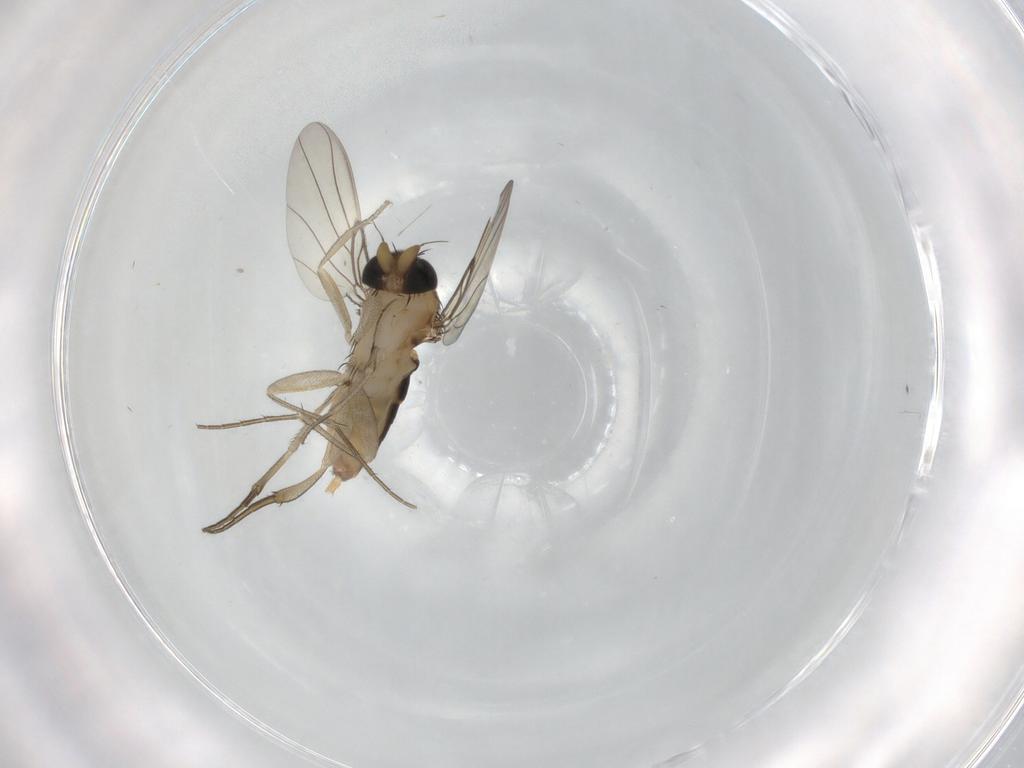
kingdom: Animalia
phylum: Arthropoda
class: Insecta
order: Diptera
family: Phoridae
